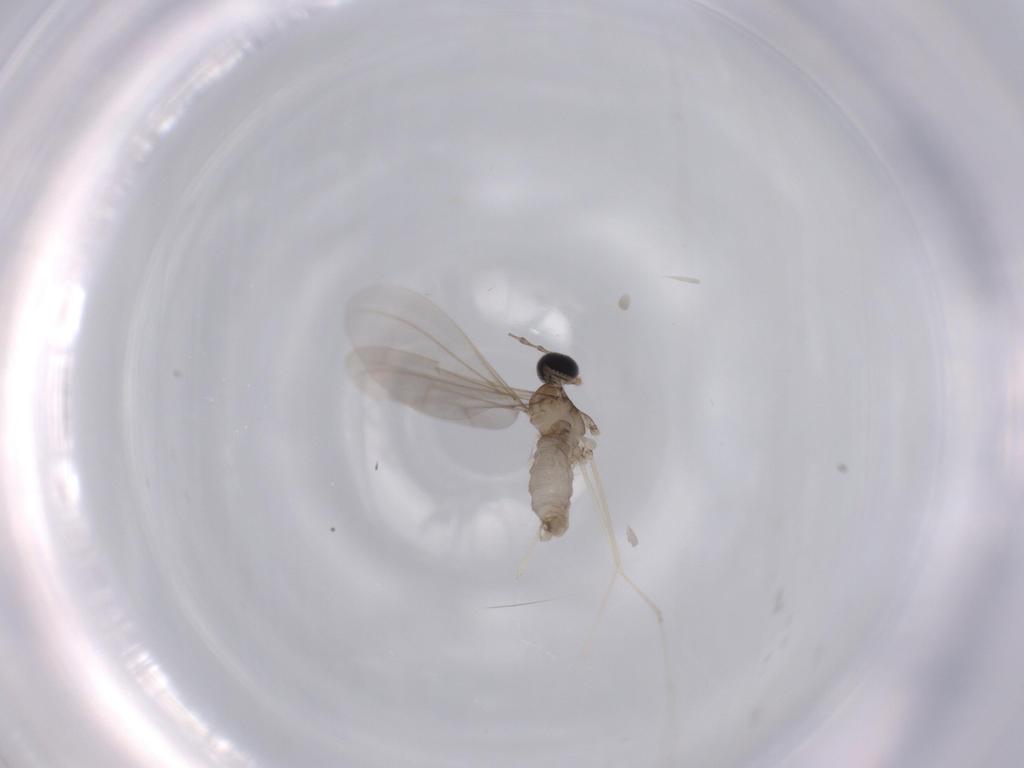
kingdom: Animalia
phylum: Arthropoda
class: Insecta
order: Diptera
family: Cecidomyiidae
